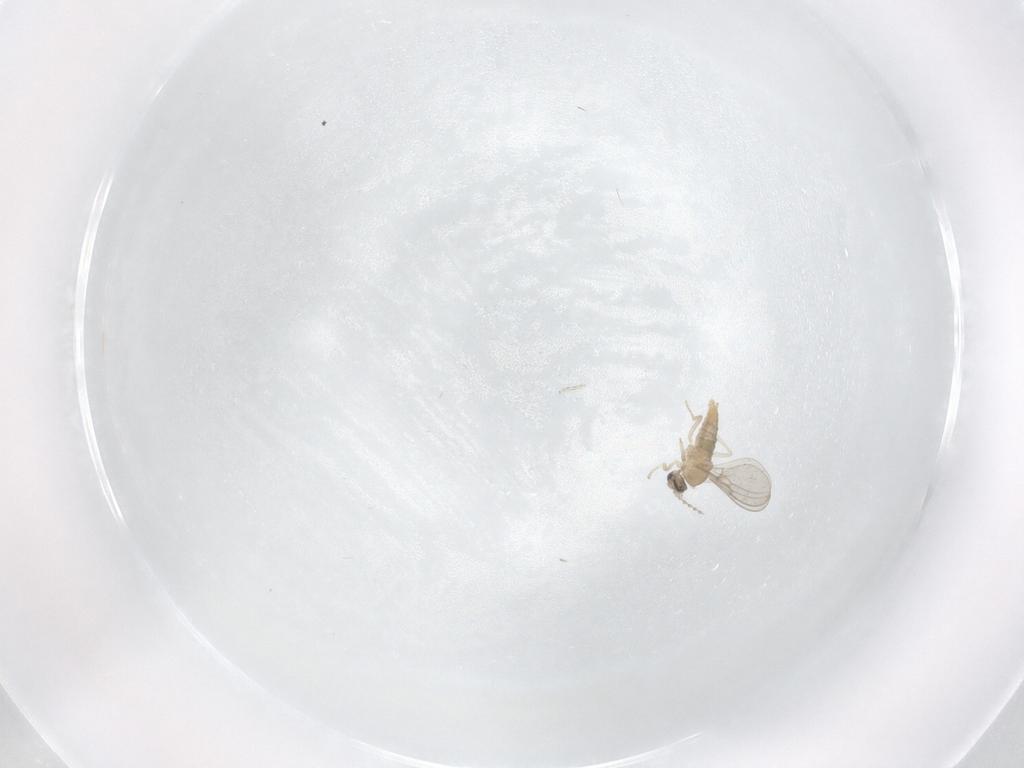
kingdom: Animalia
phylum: Arthropoda
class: Insecta
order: Diptera
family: Cecidomyiidae
